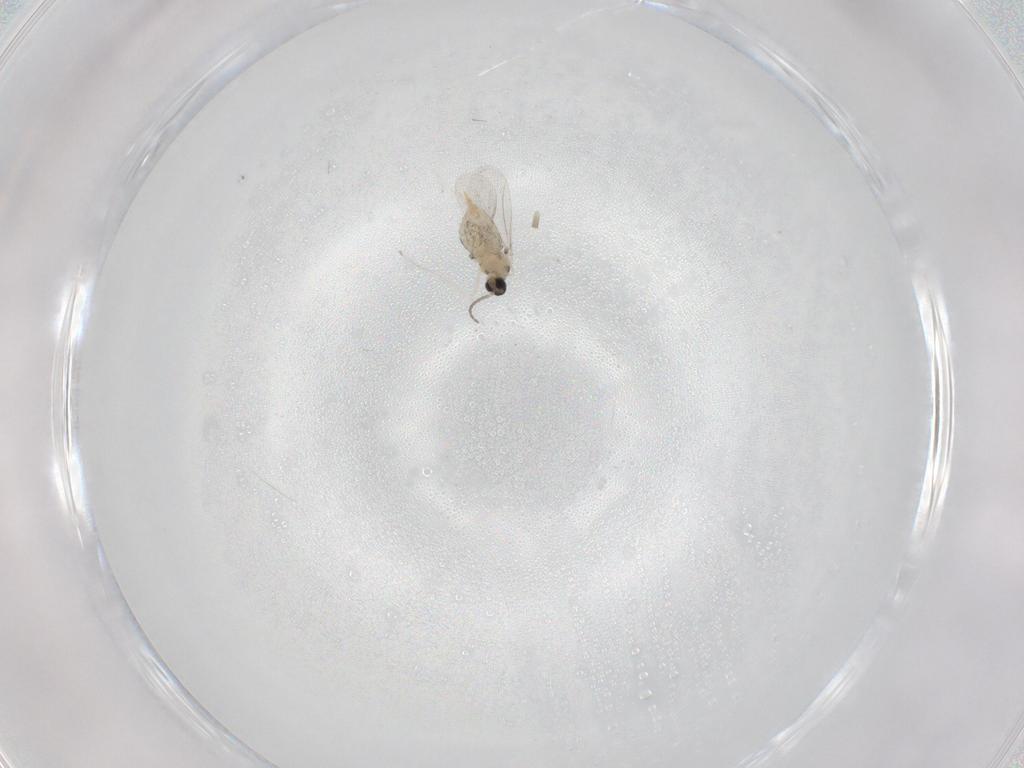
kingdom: Animalia
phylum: Arthropoda
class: Insecta
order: Diptera
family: Cecidomyiidae
